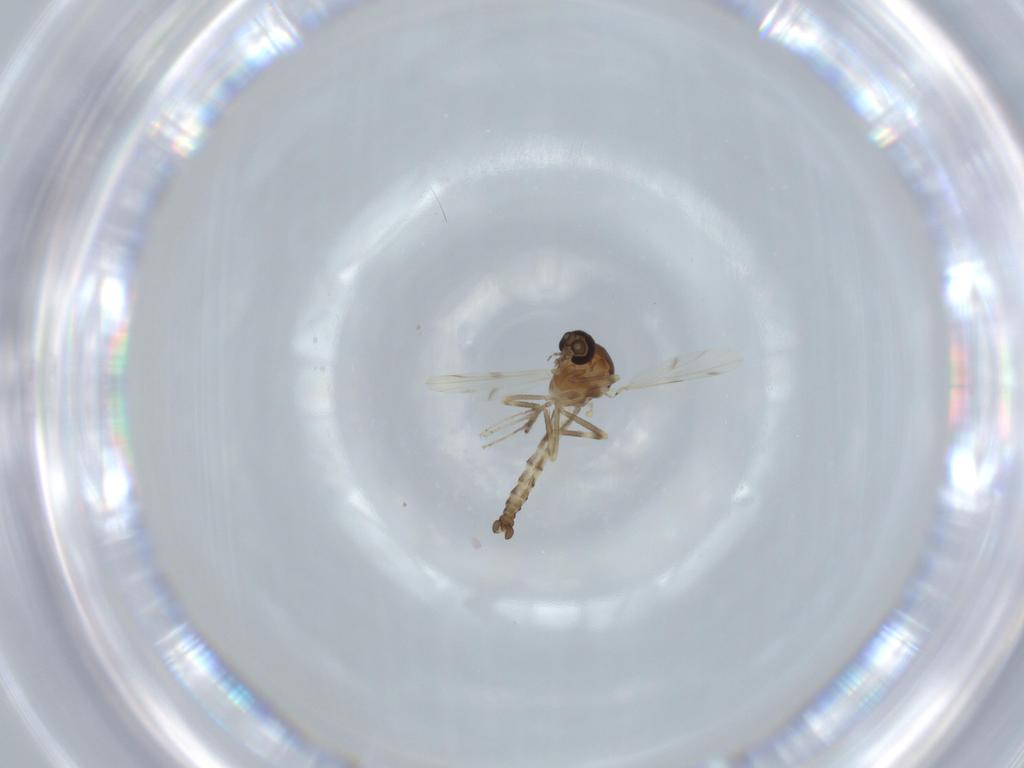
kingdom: Animalia
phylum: Arthropoda
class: Insecta
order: Diptera
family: Ceratopogonidae
